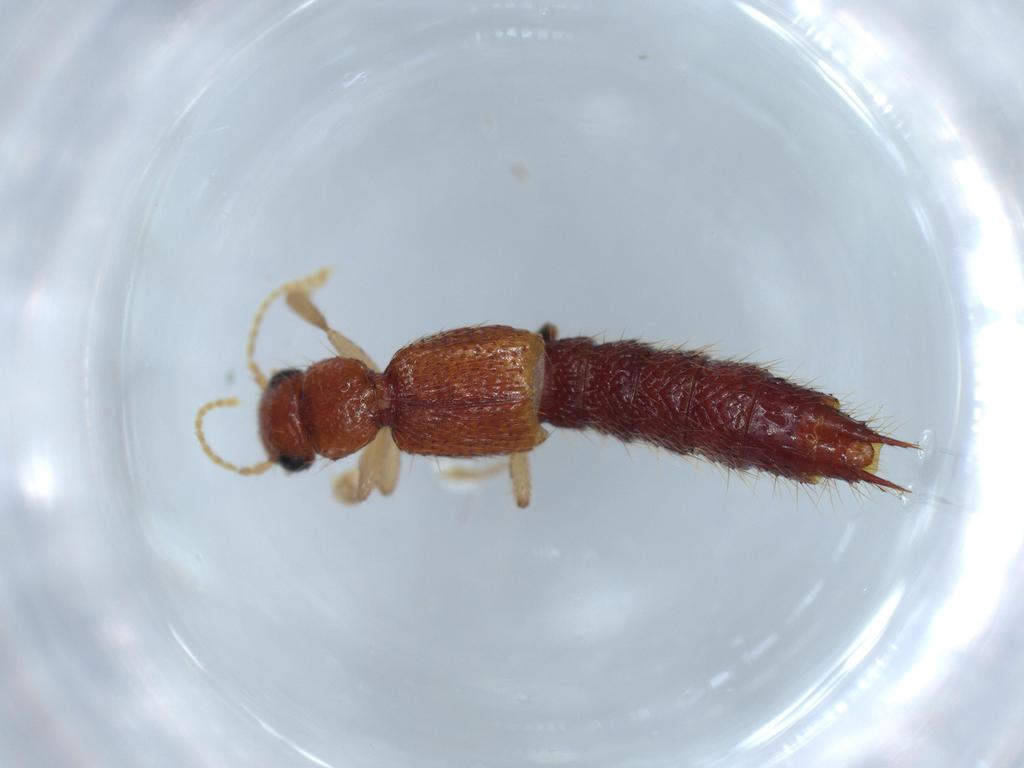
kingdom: Animalia
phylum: Arthropoda
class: Insecta
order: Coleoptera
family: Staphylinidae
